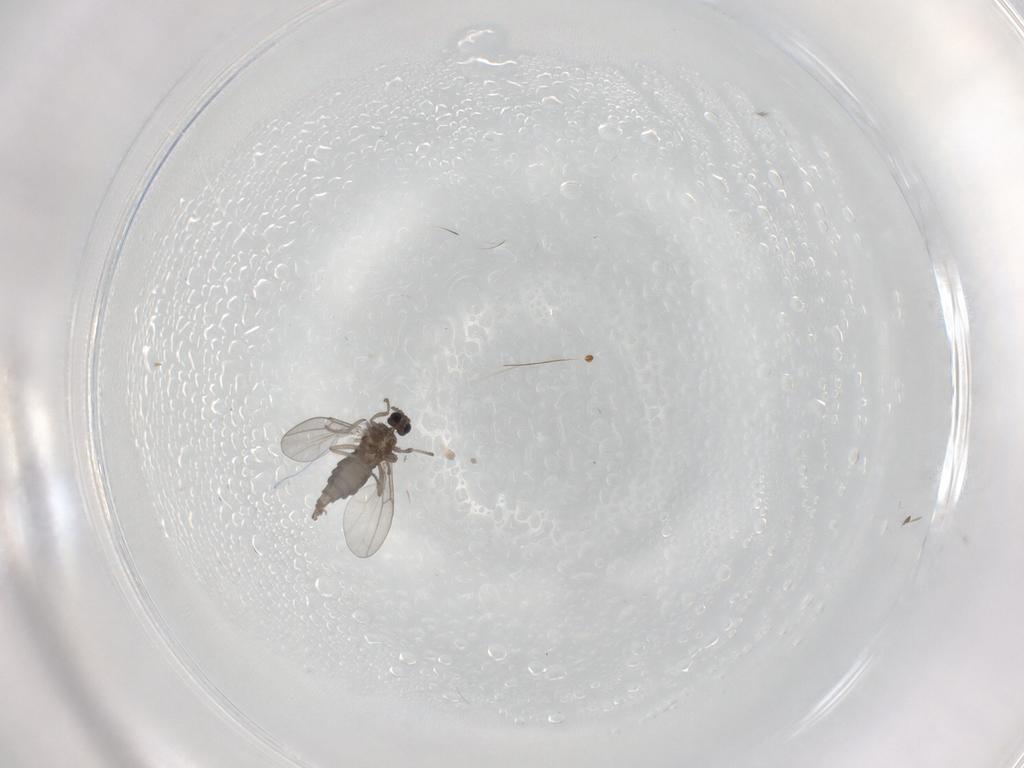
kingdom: Animalia
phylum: Arthropoda
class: Insecta
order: Diptera
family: Cecidomyiidae
